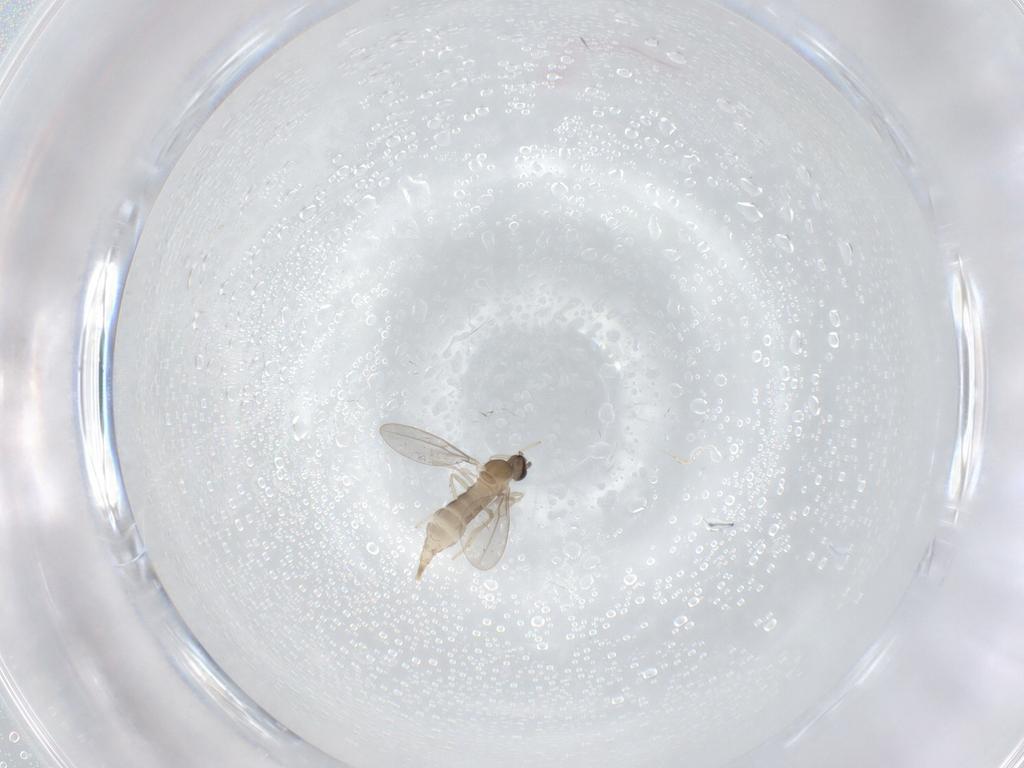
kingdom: Animalia
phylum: Arthropoda
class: Insecta
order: Diptera
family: Cecidomyiidae
